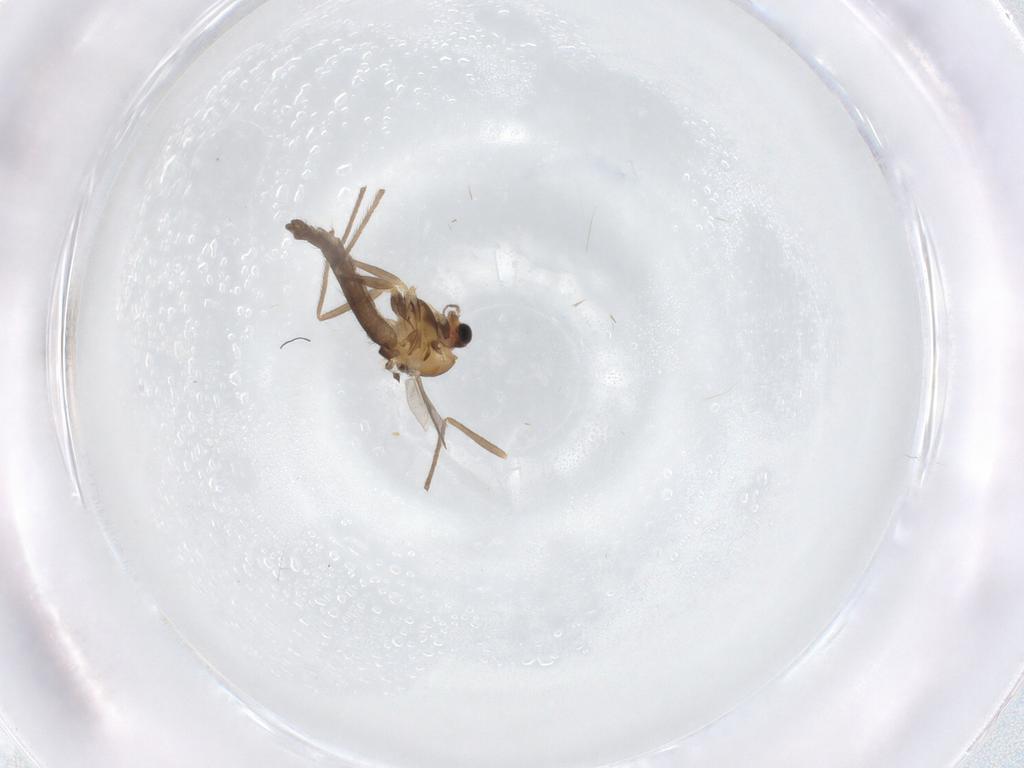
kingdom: Animalia
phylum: Arthropoda
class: Insecta
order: Diptera
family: Chironomidae
